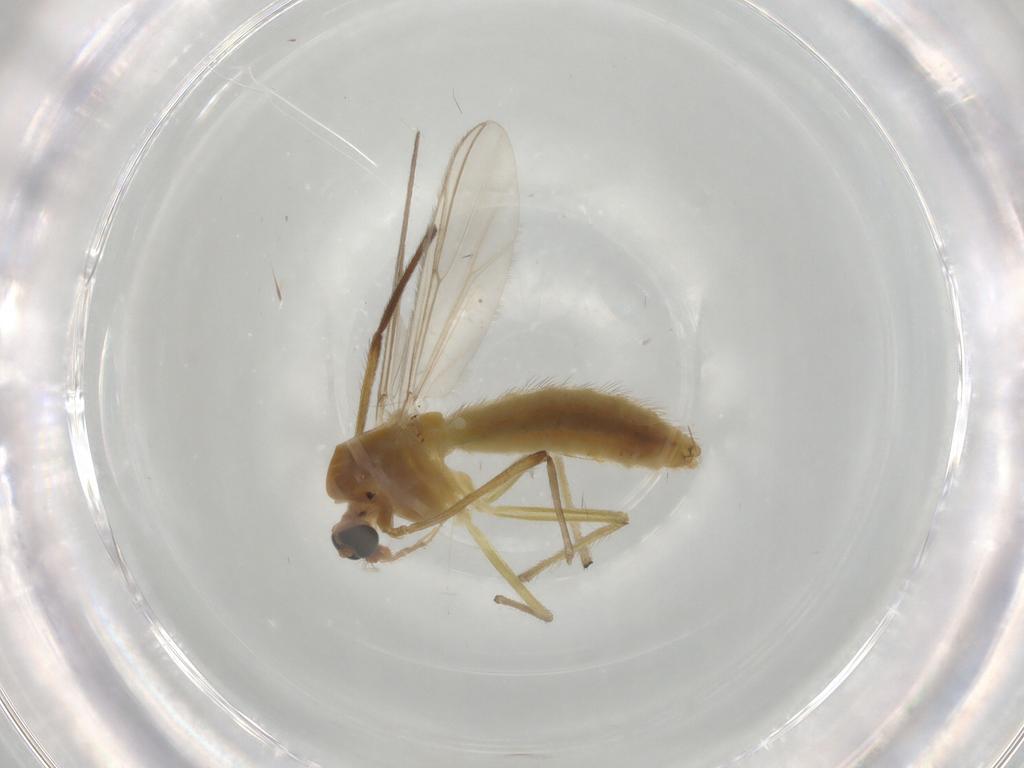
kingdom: Animalia
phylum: Arthropoda
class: Insecta
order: Diptera
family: Chironomidae
